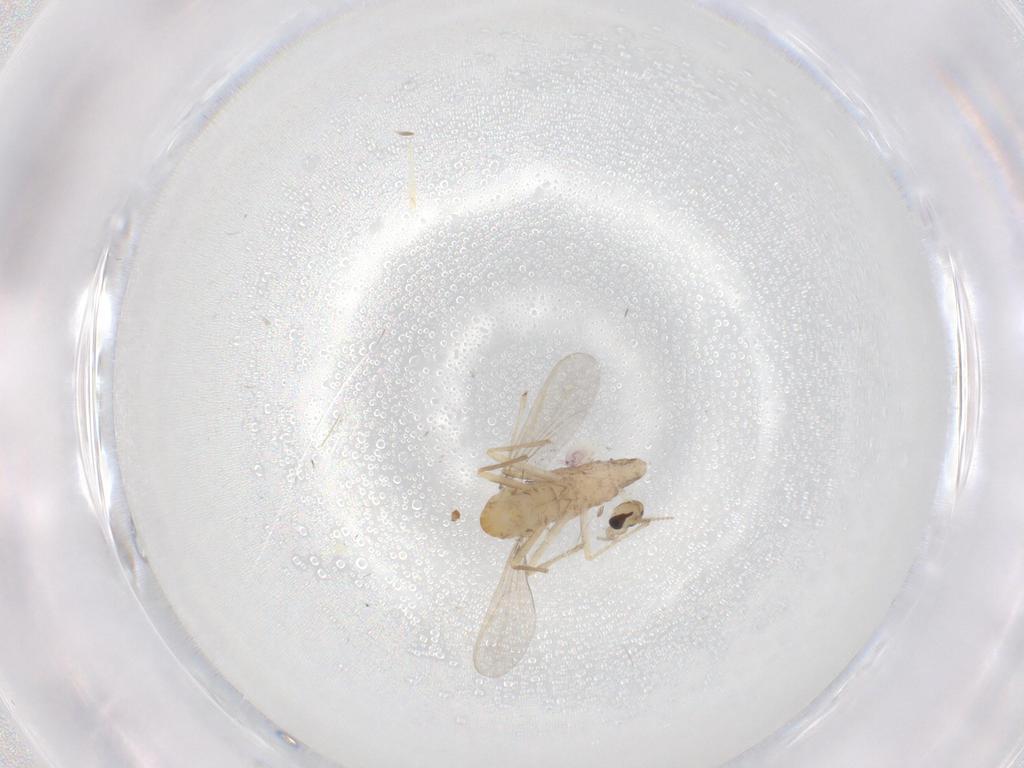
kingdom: Animalia
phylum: Arthropoda
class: Insecta
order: Diptera
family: Chironomidae
